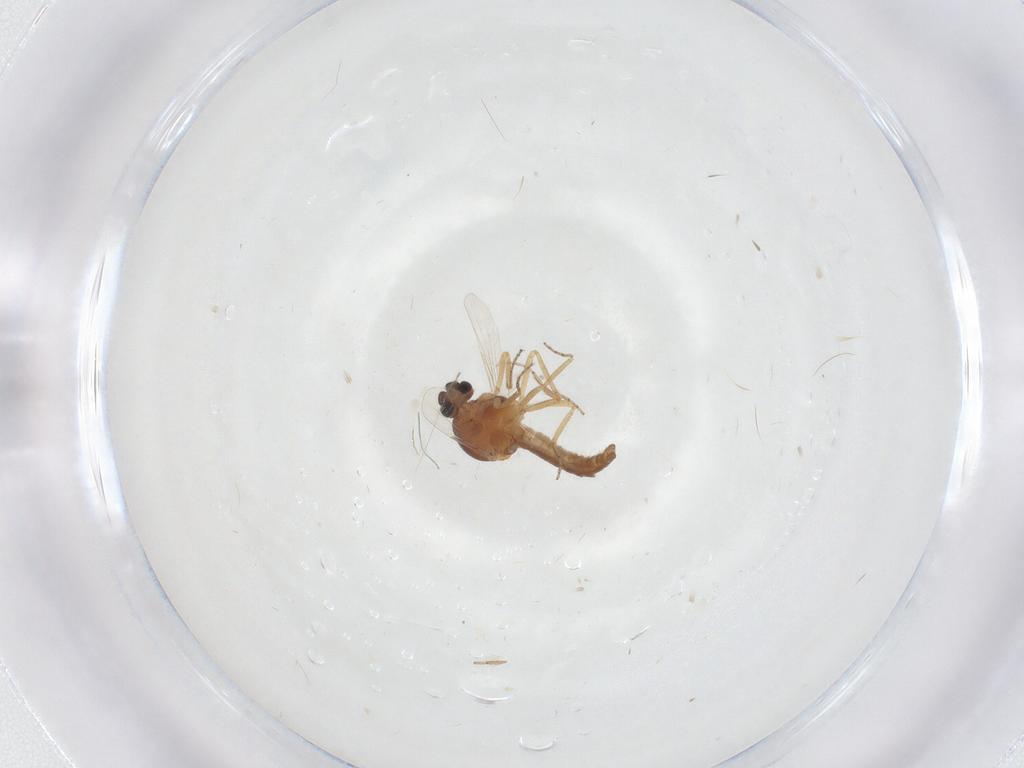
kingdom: Animalia
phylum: Arthropoda
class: Insecta
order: Diptera
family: Ceratopogonidae
